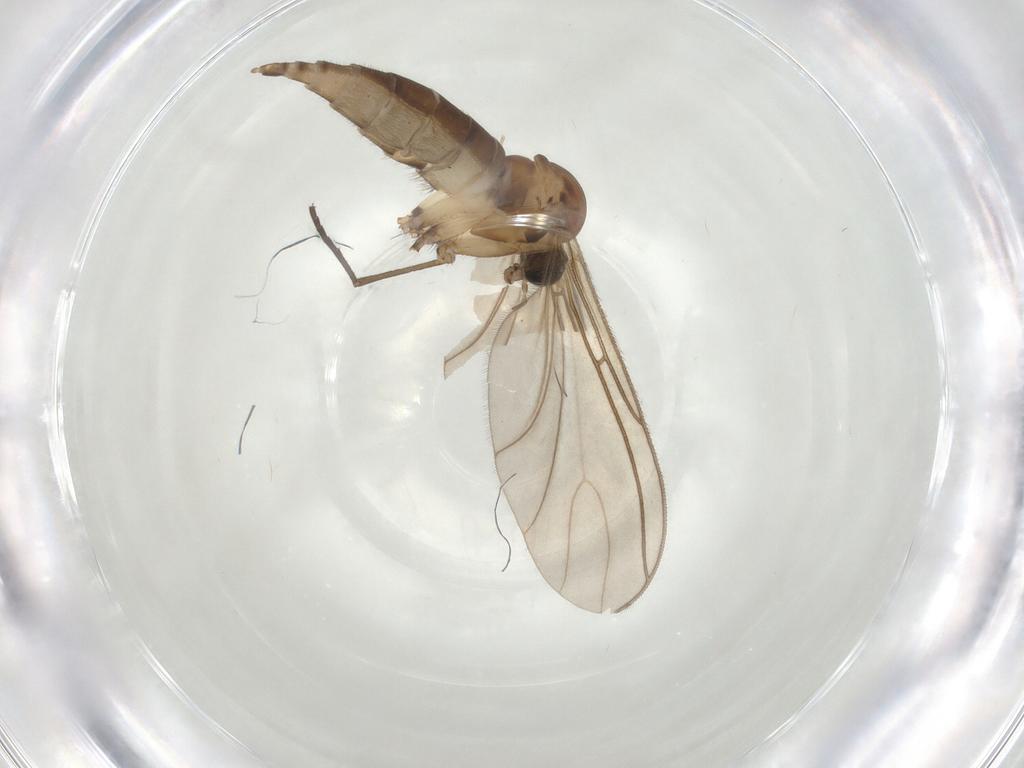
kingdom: Animalia
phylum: Arthropoda
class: Insecta
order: Diptera
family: Sciaridae
